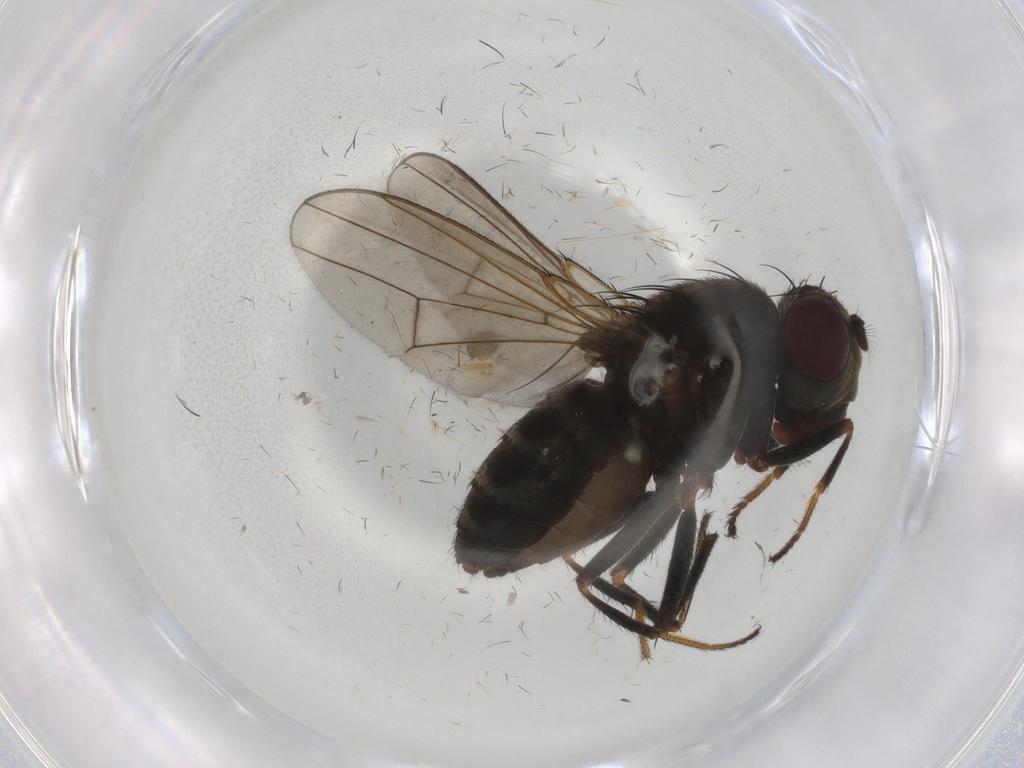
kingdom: Animalia
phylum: Arthropoda
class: Insecta
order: Diptera
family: Ephydridae
